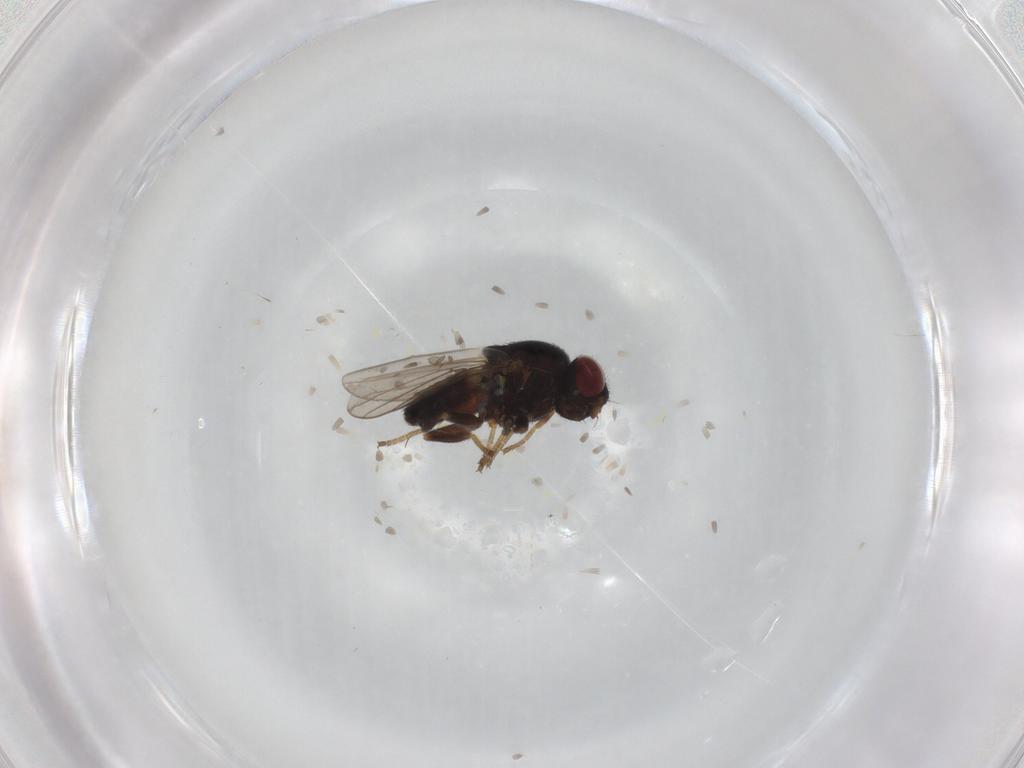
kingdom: Animalia
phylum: Arthropoda
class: Insecta
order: Diptera
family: Chloropidae
